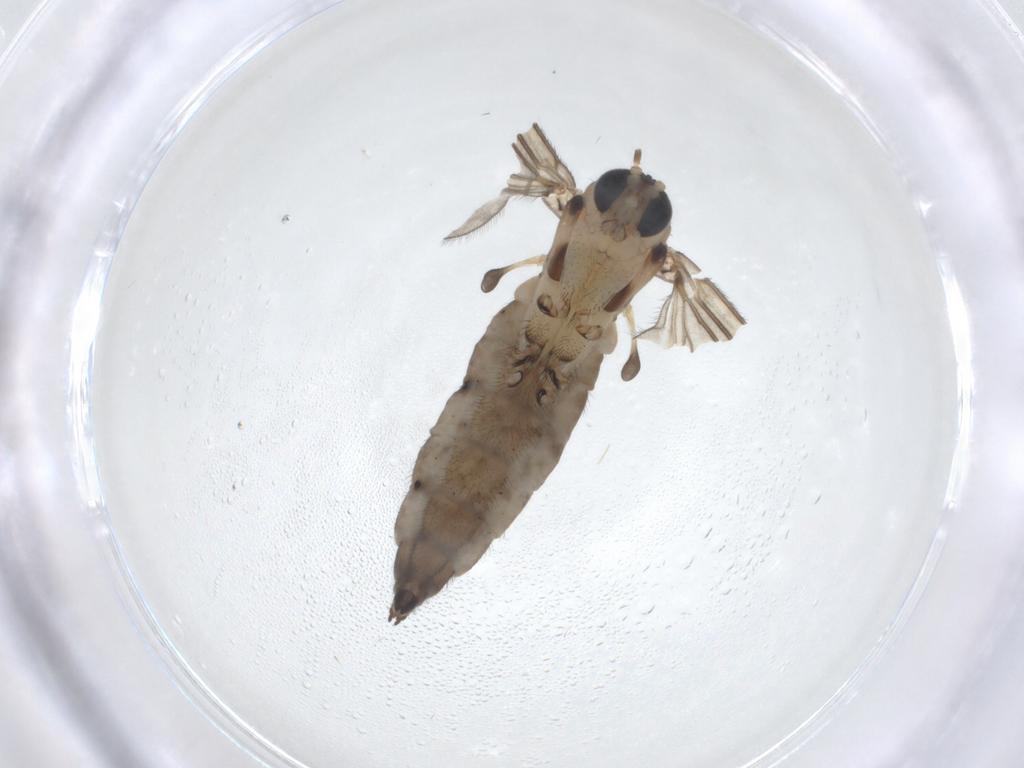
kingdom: Animalia
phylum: Arthropoda
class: Insecta
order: Diptera
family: Sciaridae
